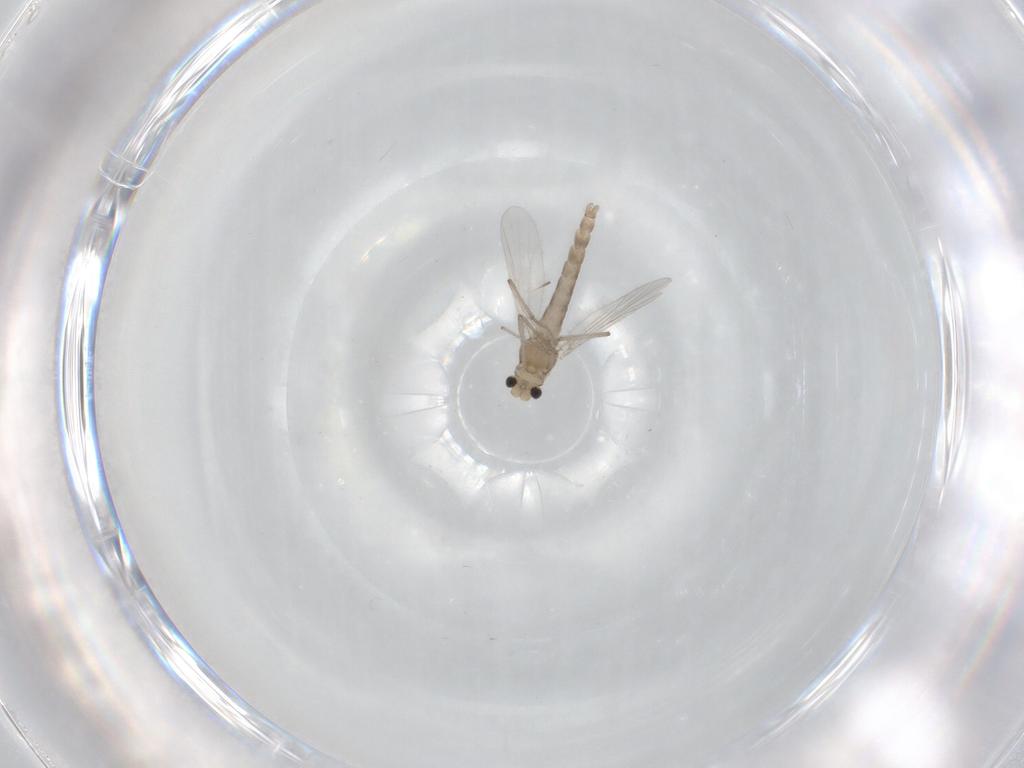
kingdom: Animalia
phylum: Arthropoda
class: Insecta
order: Diptera
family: Chironomidae
